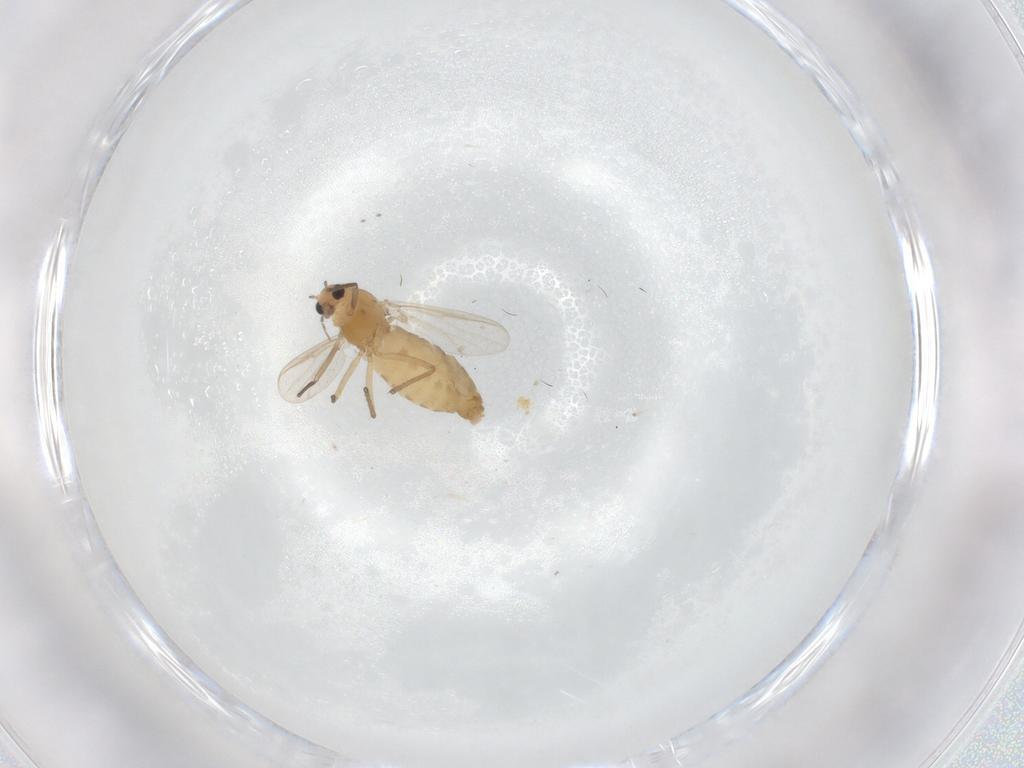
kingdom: Animalia
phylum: Arthropoda
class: Insecta
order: Diptera
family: Chironomidae
